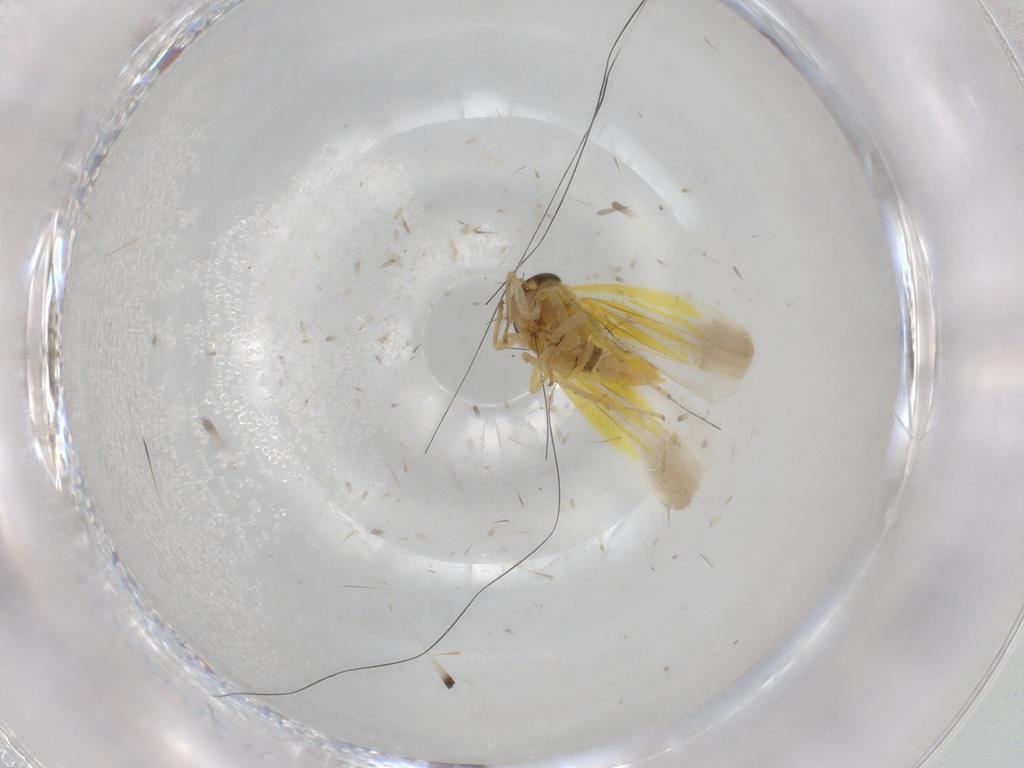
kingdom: Animalia
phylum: Arthropoda
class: Insecta
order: Hemiptera
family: Cicadellidae
